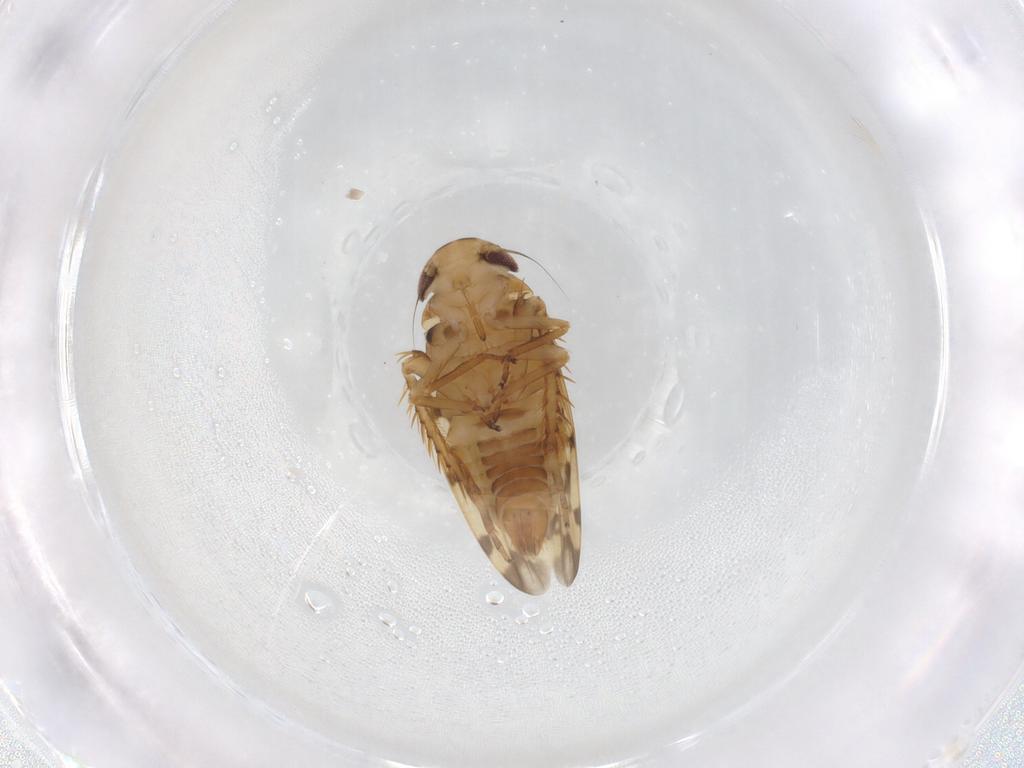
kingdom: Animalia
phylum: Arthropoda
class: Insecta
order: Hemiptera
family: Cicadellidae
